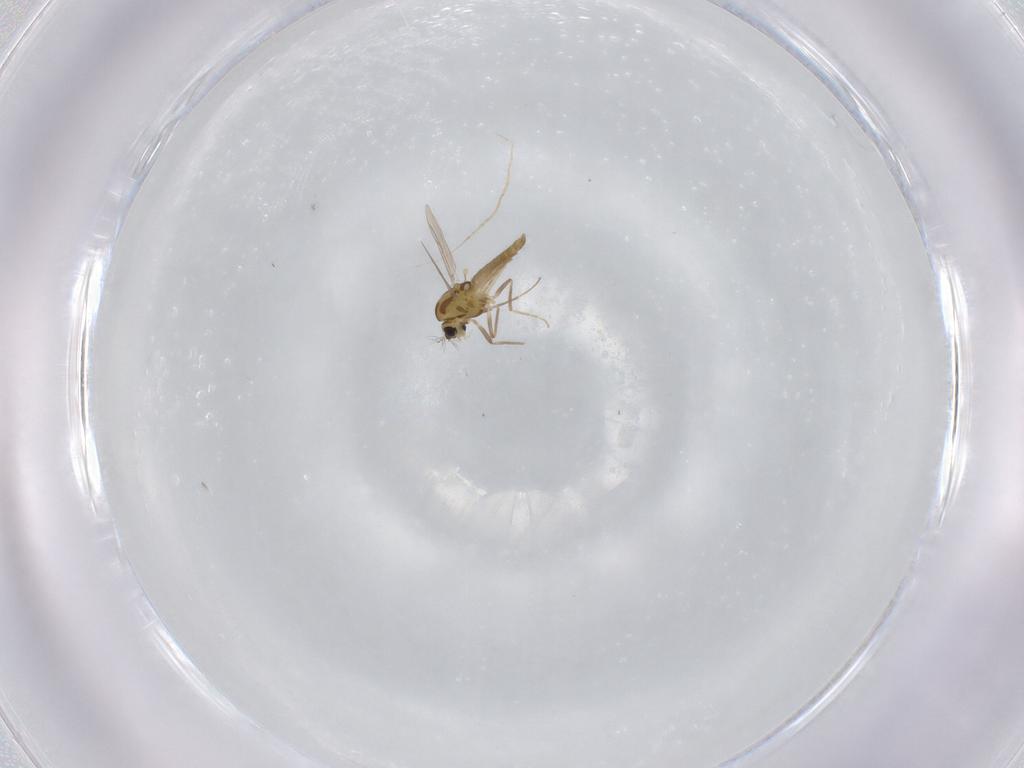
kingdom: Animalia
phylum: Arthropoda
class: Insecta
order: Diptera
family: Chironomidae
